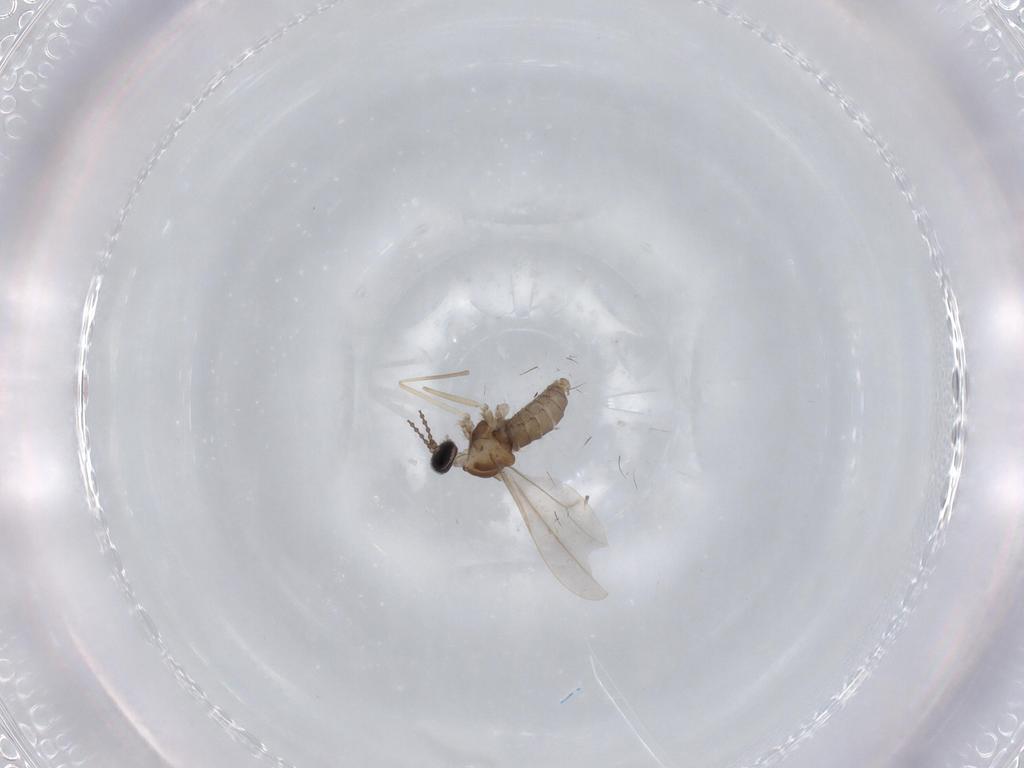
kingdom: Animalia
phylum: Arthropoda
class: Insecta
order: Diptera
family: Cecidomyiidae
